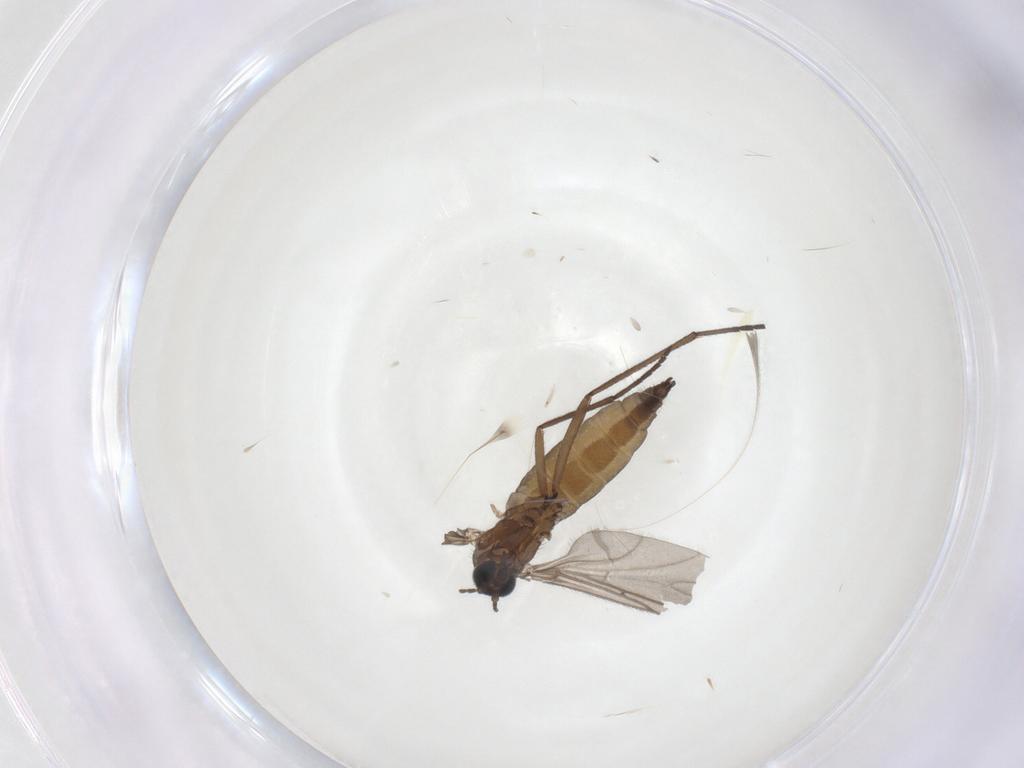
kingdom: Animalia
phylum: Arthropoda
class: Insecta
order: Diptera
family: Sciaridae
